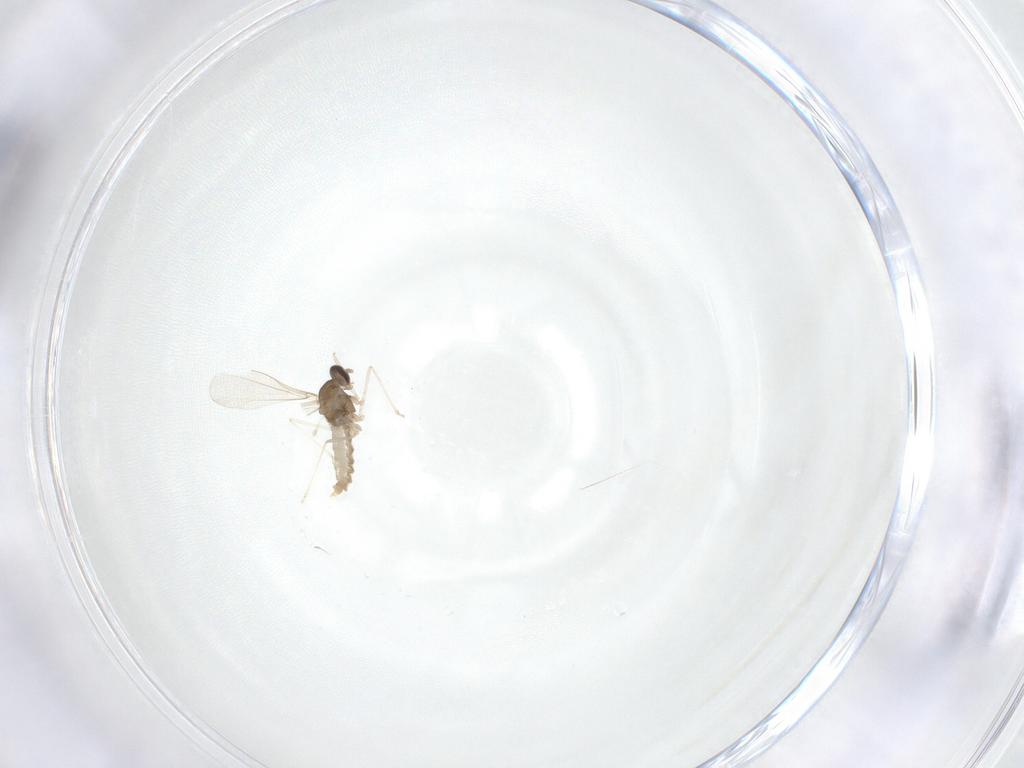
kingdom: Animalia
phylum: Arthropoda
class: Insecta
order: Diptera
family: Cecidomyiidae
